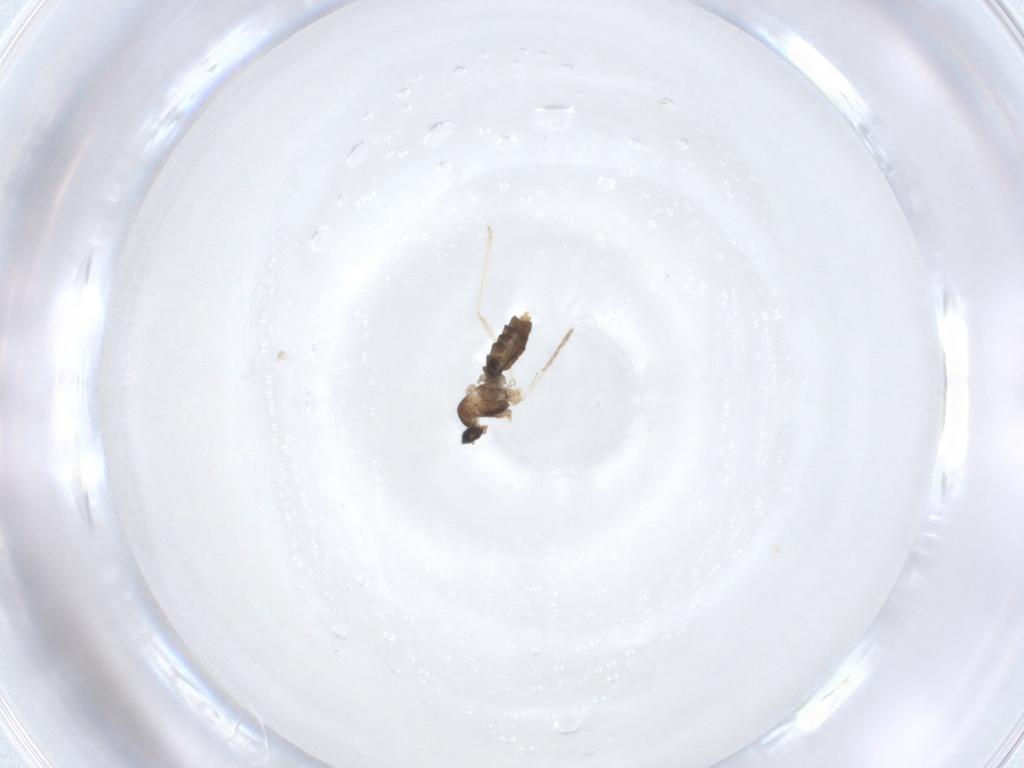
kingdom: Animalia
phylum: Arthropoda
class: Insecta
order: Diptera
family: Cecidomyiidae
